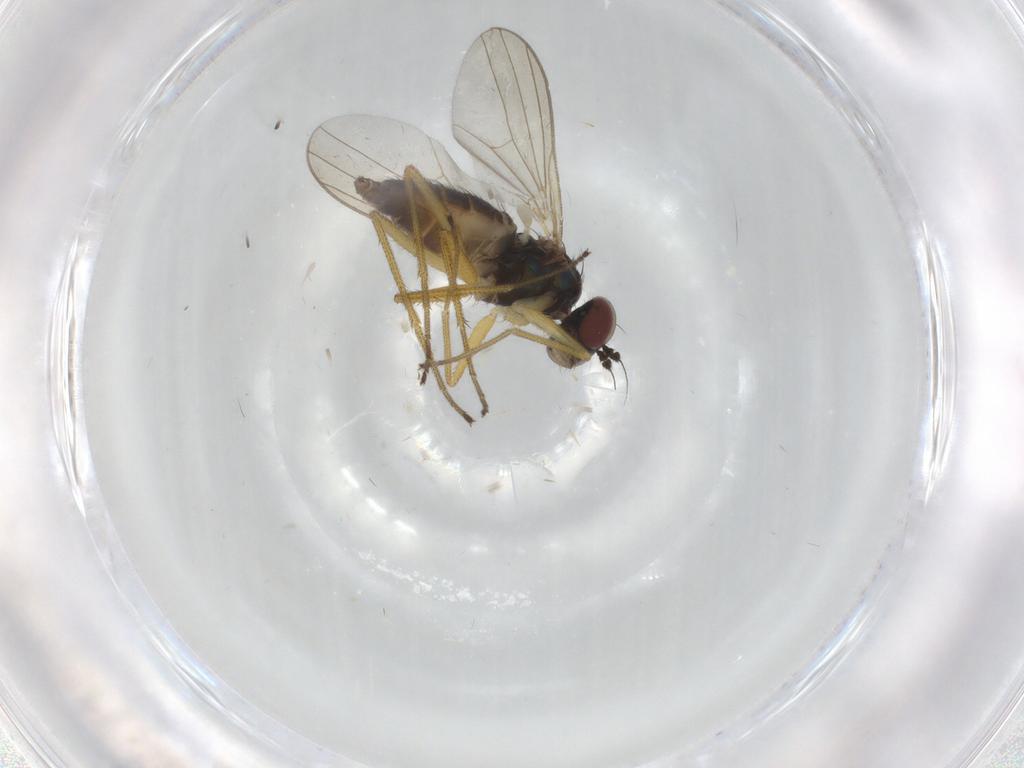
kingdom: Animalia
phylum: Arthropoda
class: Insecta
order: Diptera
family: Dolichopodidae
